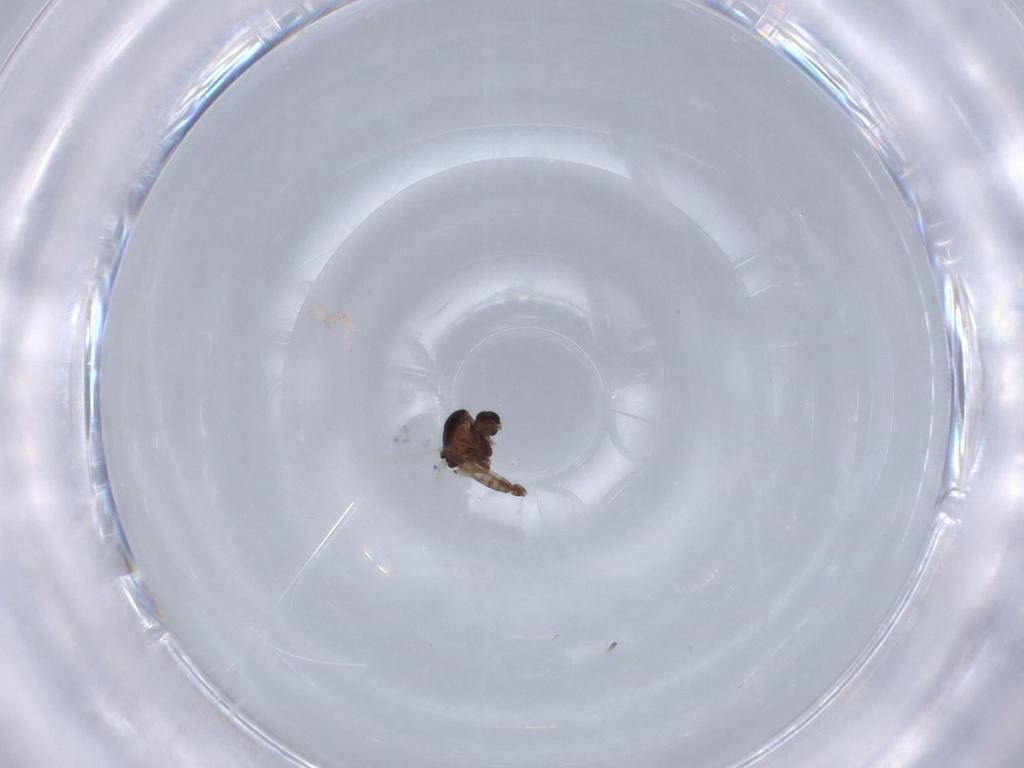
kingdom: Animalia
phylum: Arthropoda
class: Insecta
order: Diptera
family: Chironomidae
